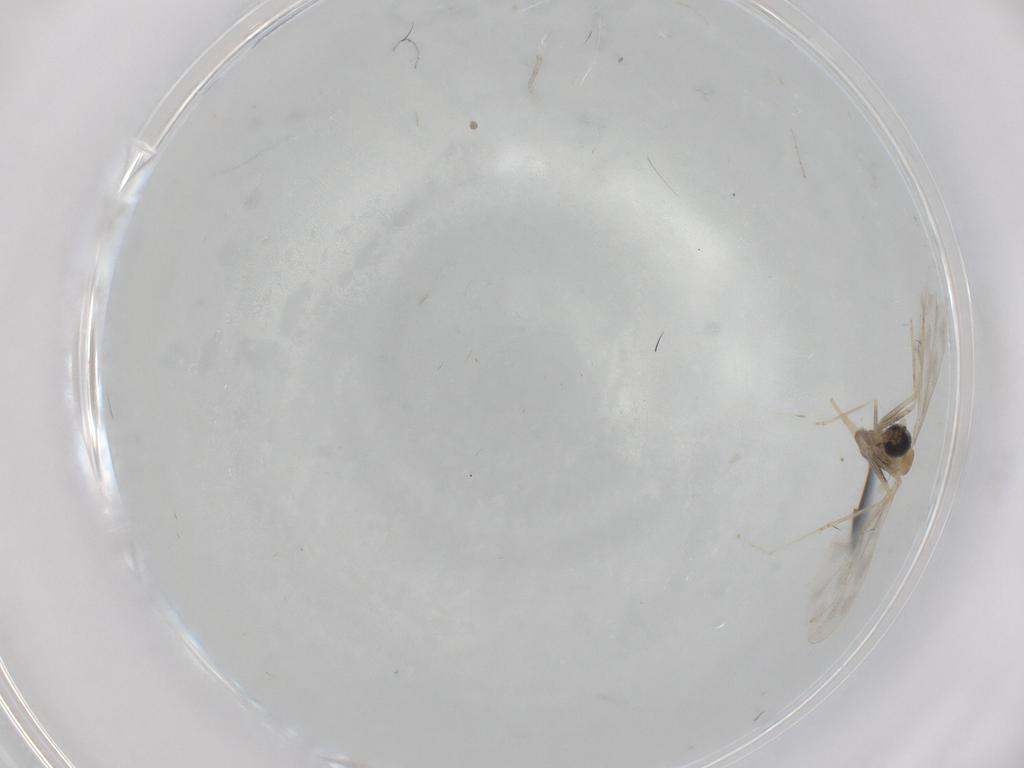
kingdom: Animalia
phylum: Arthropoda
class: Insecta
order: Diptera
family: Cecidomyiidae
